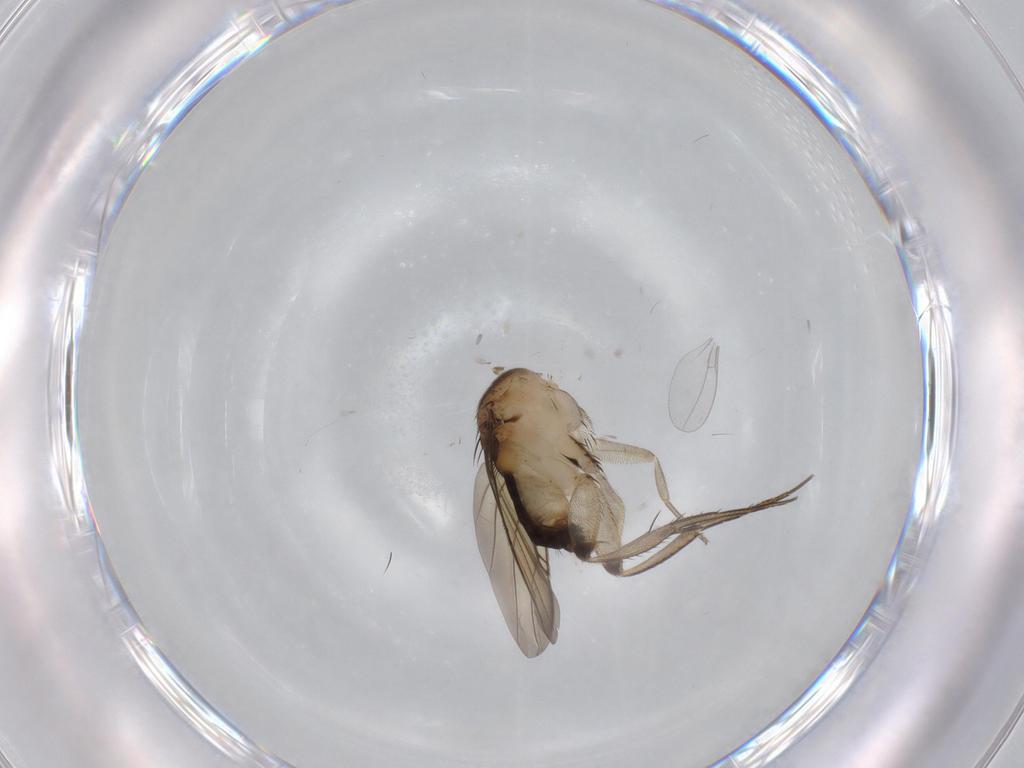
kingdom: Animalia
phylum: Arthropoda
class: Insecta
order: Diptera
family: Phoridae
